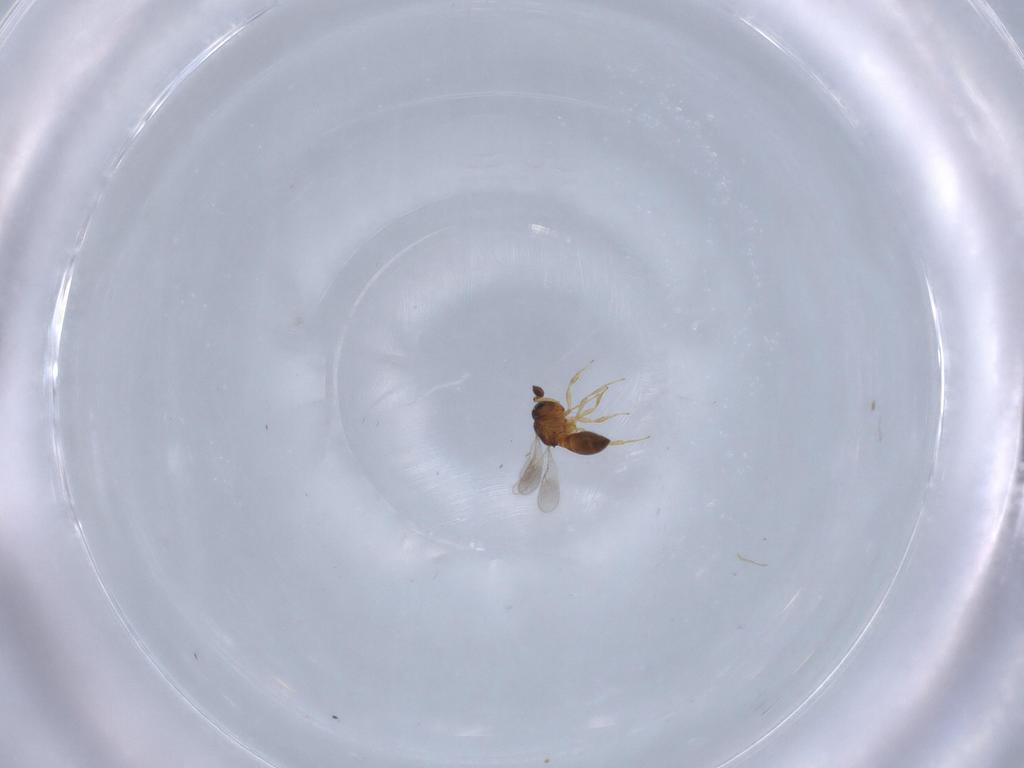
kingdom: Animalia
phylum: Arthropoda
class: Insecta
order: Hymenoptera
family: Scelionidae
